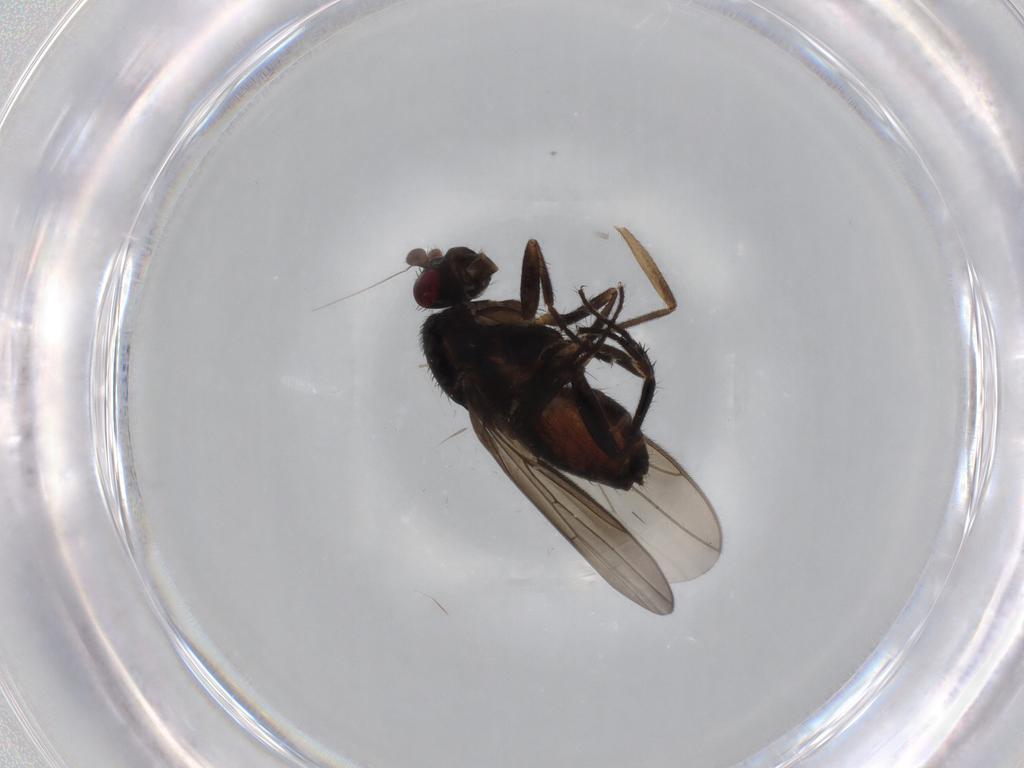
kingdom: Animalia
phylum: Arthropoda
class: Insecta
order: Diptera
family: Sphaeroceridae
